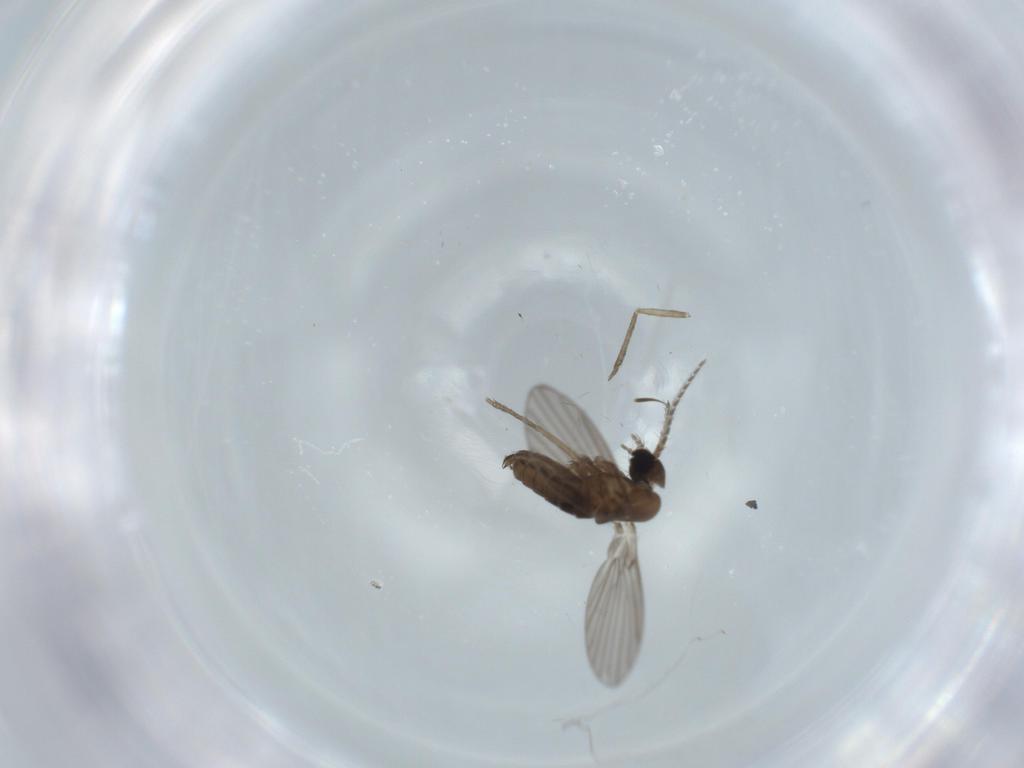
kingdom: Animalia
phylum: Arthropoda
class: Insecta
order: Diptera
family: Psychodidae
